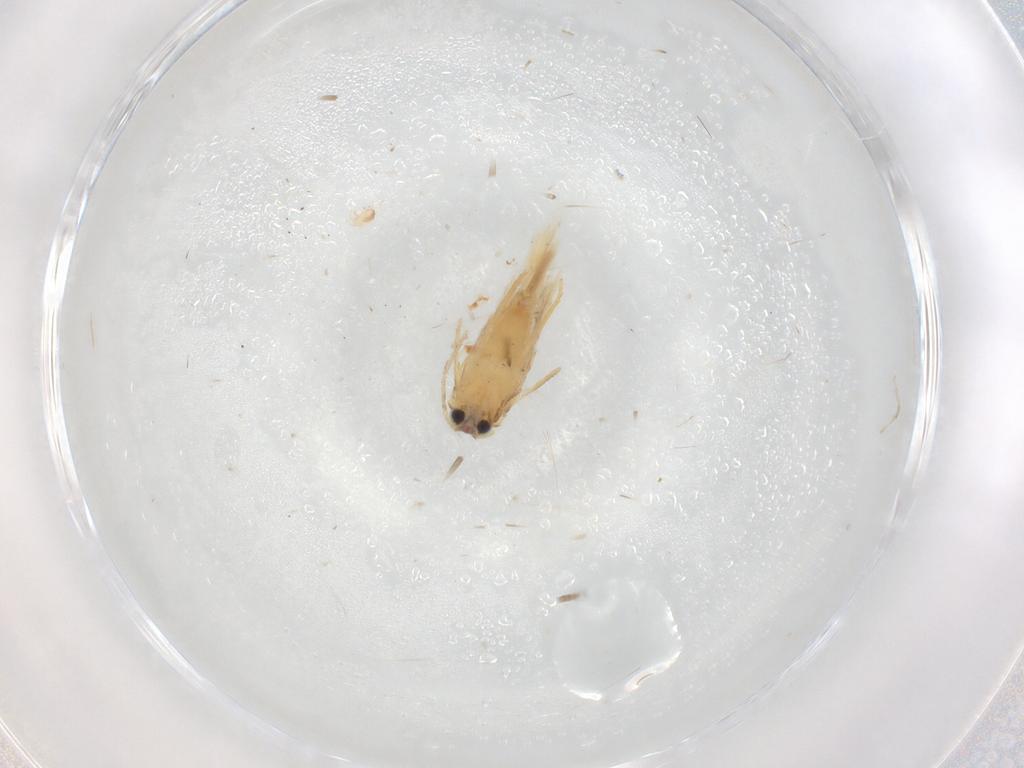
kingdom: Animalia
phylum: Arthropoda
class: Insecta
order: Lepidoptera
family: Nepticulidae
